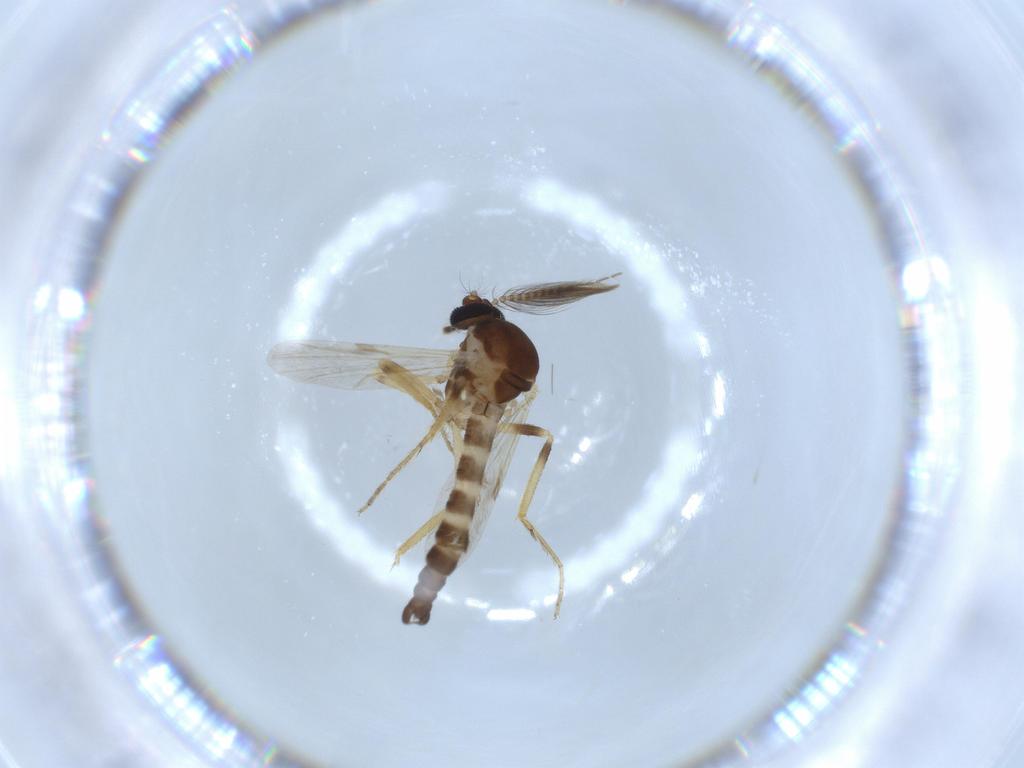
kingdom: Animalia
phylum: Arthropoda
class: Insecta
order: Diptera
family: Ceratopogonidae
